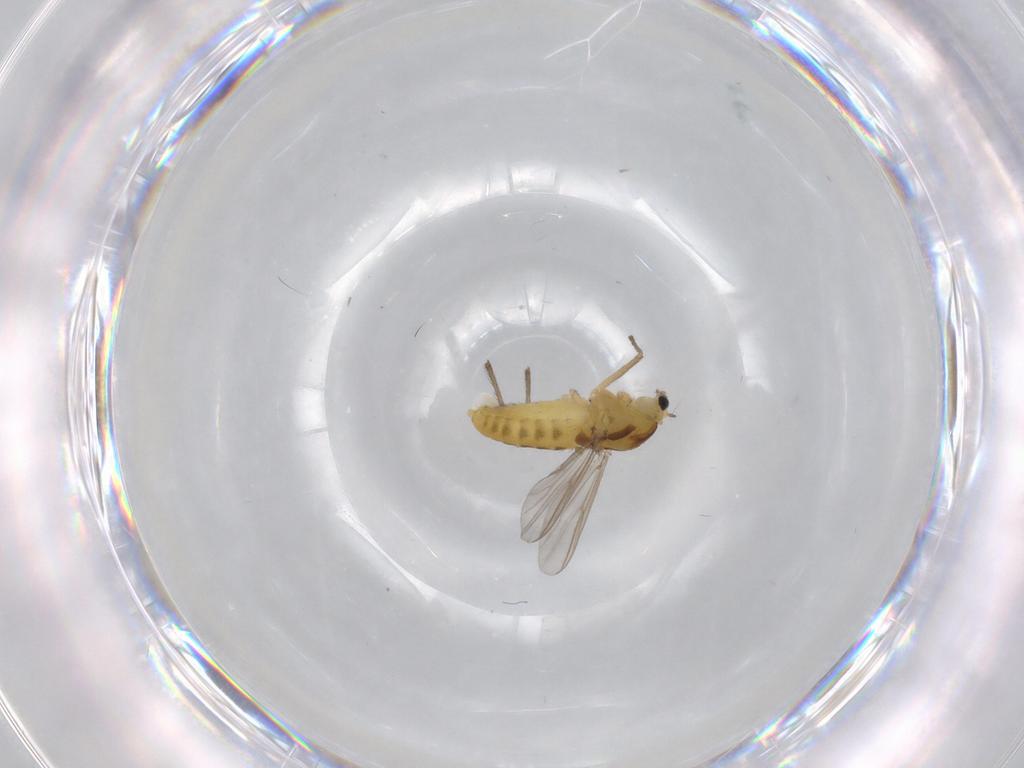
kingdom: Animalia
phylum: Arthropoda
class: Insecta
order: Diptera
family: Chironomidae
